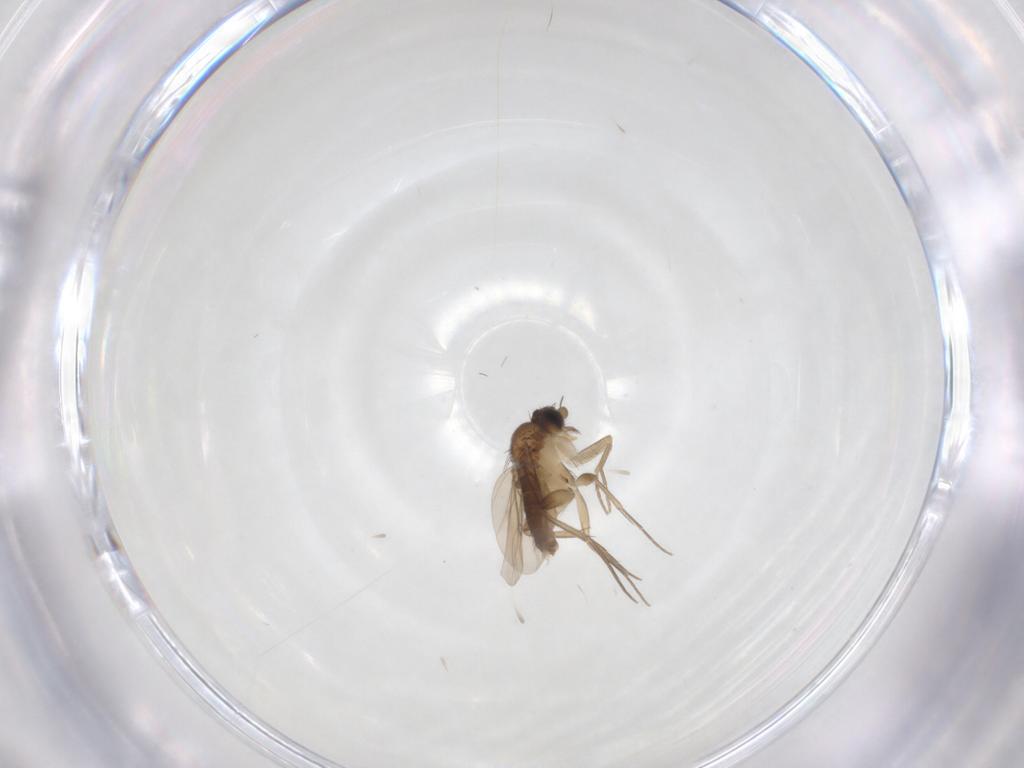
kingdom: Animalia
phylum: Arthropoda
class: Insecta
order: Diptera
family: Phoridae
